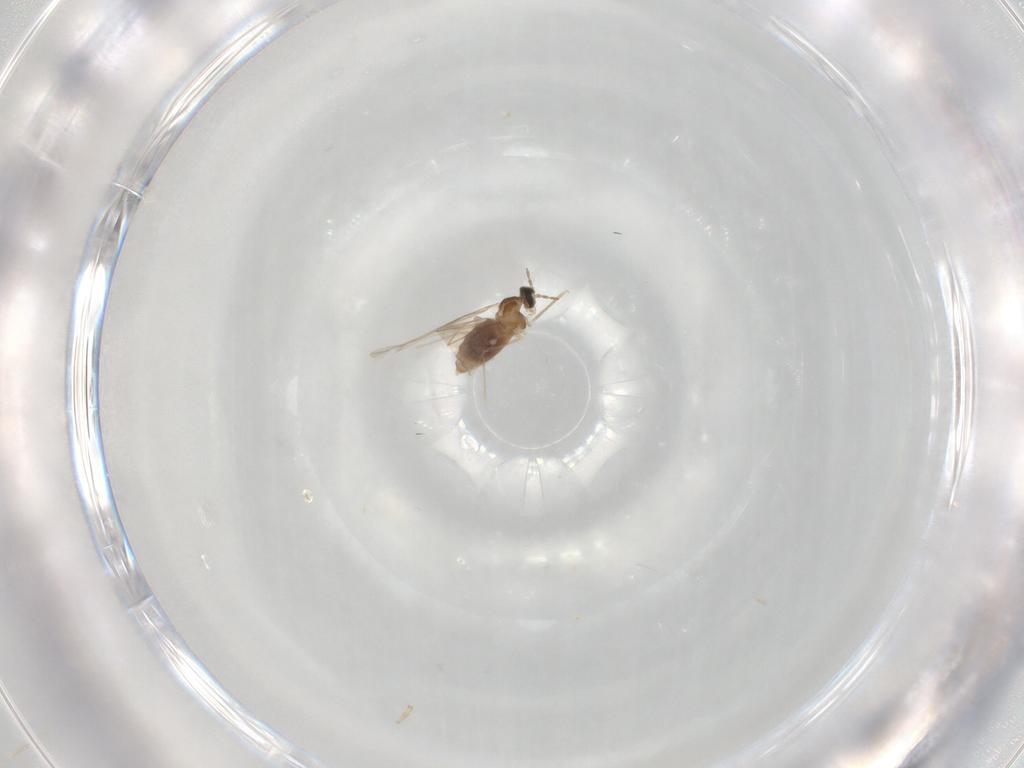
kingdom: Animalia
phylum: Arthropoda
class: Insecta
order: Diptera
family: Cecidomyiidae
